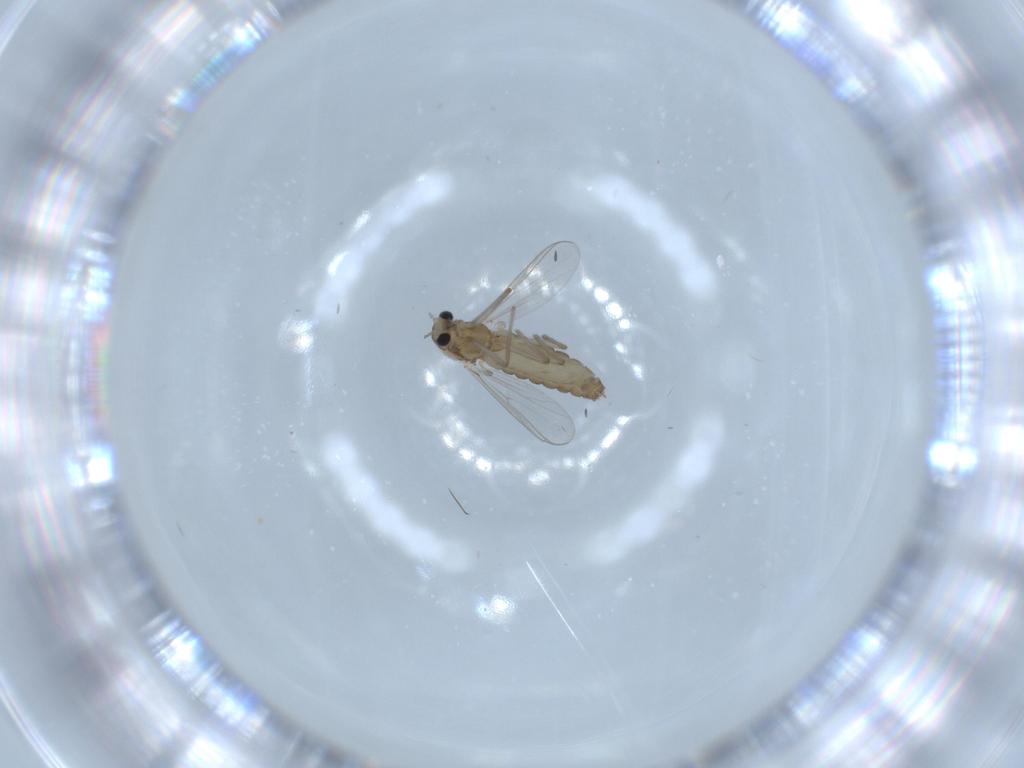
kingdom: Animalia
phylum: Arthropoda
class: Insecta
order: Diptera
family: Chironomidae
